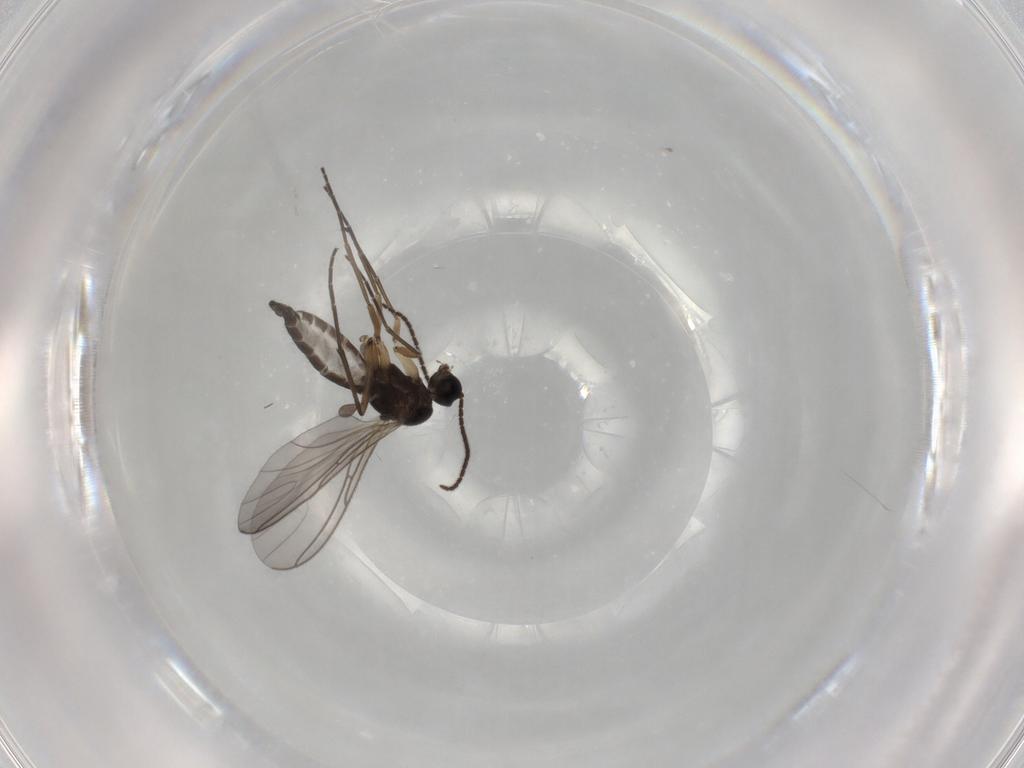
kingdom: Animalia
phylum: Arthropoda
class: Insecta
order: Diptera
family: Cecidomyiidae
